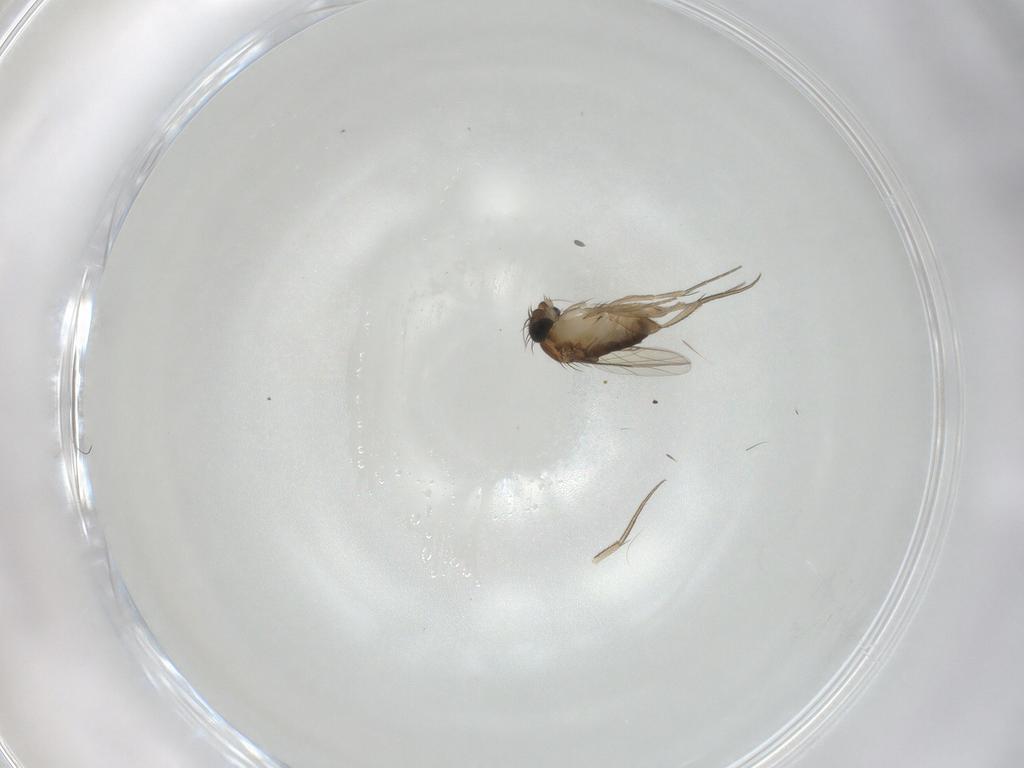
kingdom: Animalia
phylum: Arthropoda
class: Insecta
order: Diptera
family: Phoridae
